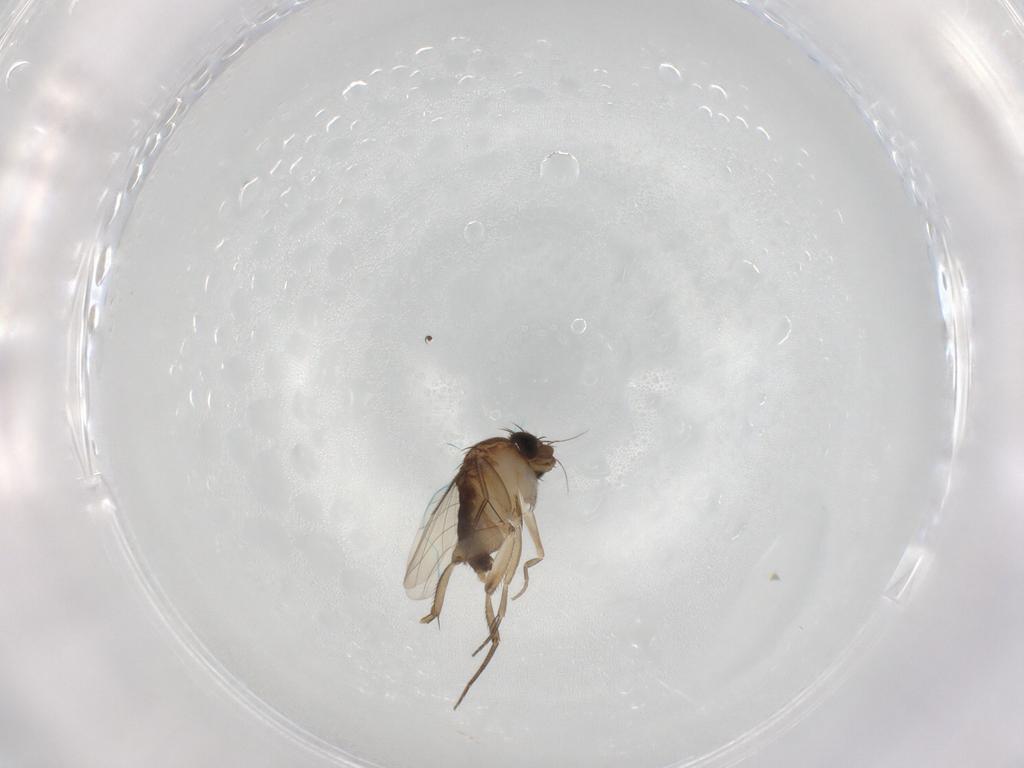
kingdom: Animalia
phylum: Arthropoda
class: Insecta
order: Diptera
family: Phoridae
